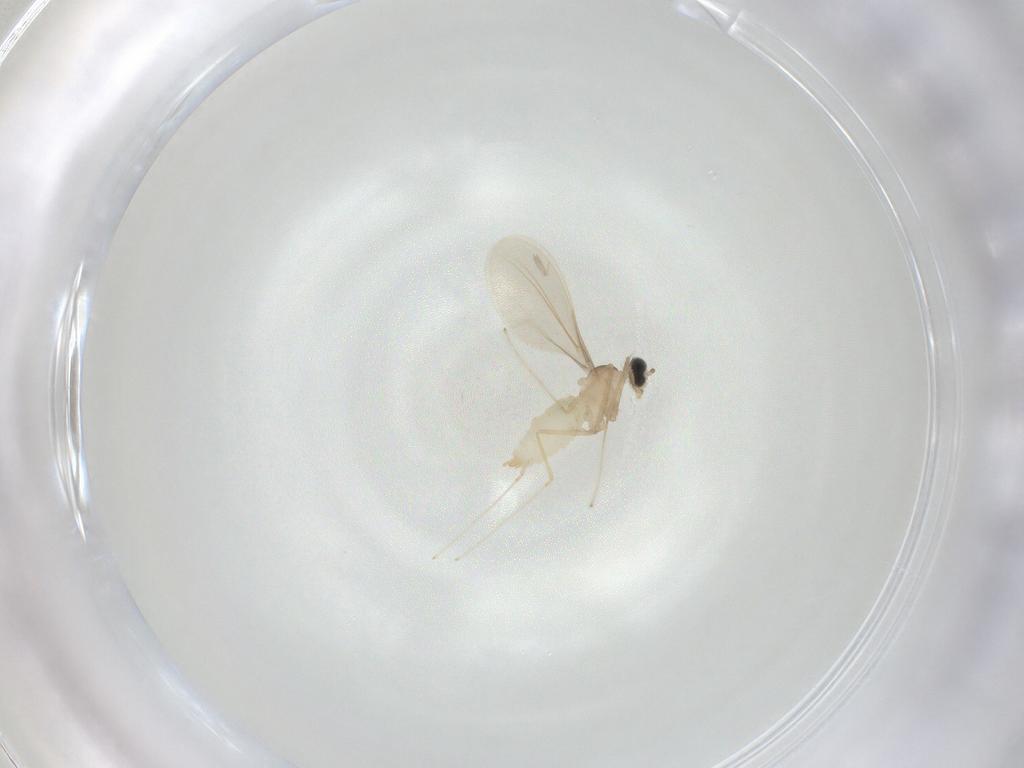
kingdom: Animalia
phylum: Arthropoda
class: Insecta
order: Diptera
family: Cecidomyiidae
